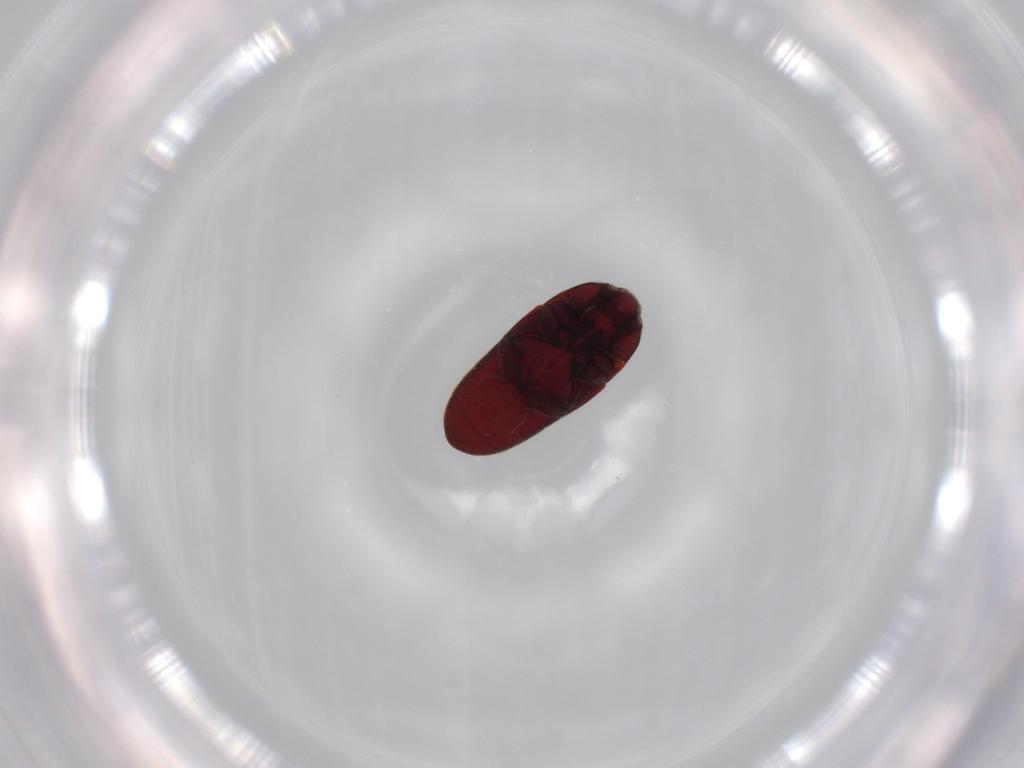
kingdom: Animalia
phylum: Arthropoda
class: Insecta
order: Coleoptera
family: Throscidae
